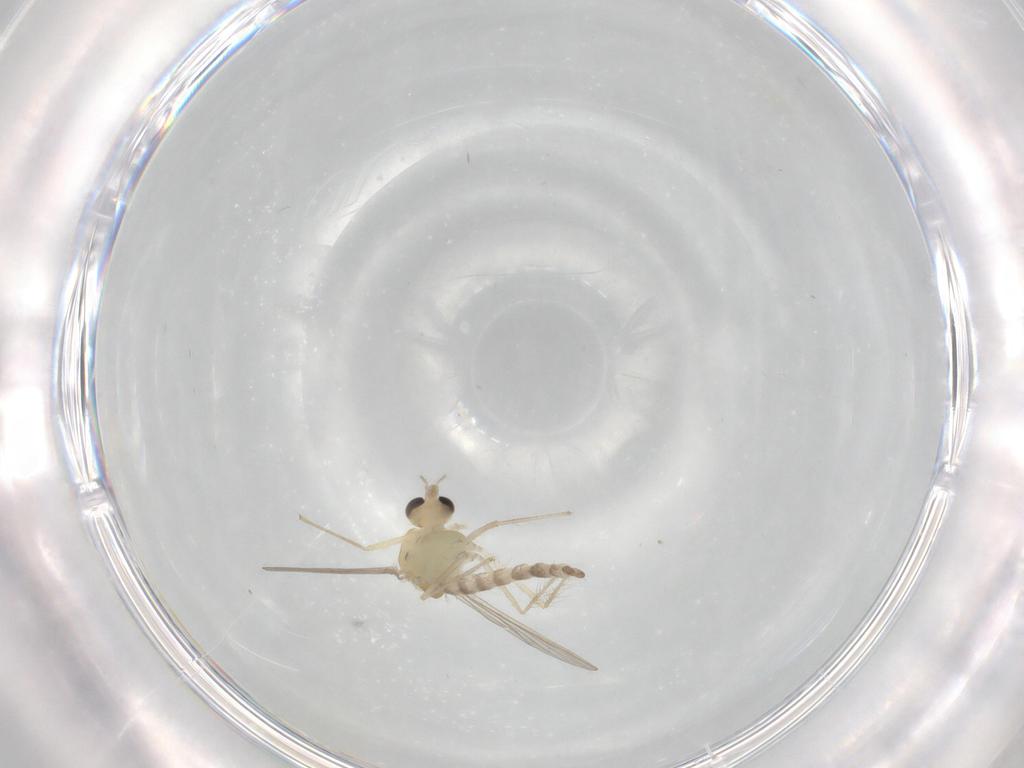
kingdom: Animalia
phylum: Arthropoda
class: Insecta
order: Diptera
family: Chironomidae
